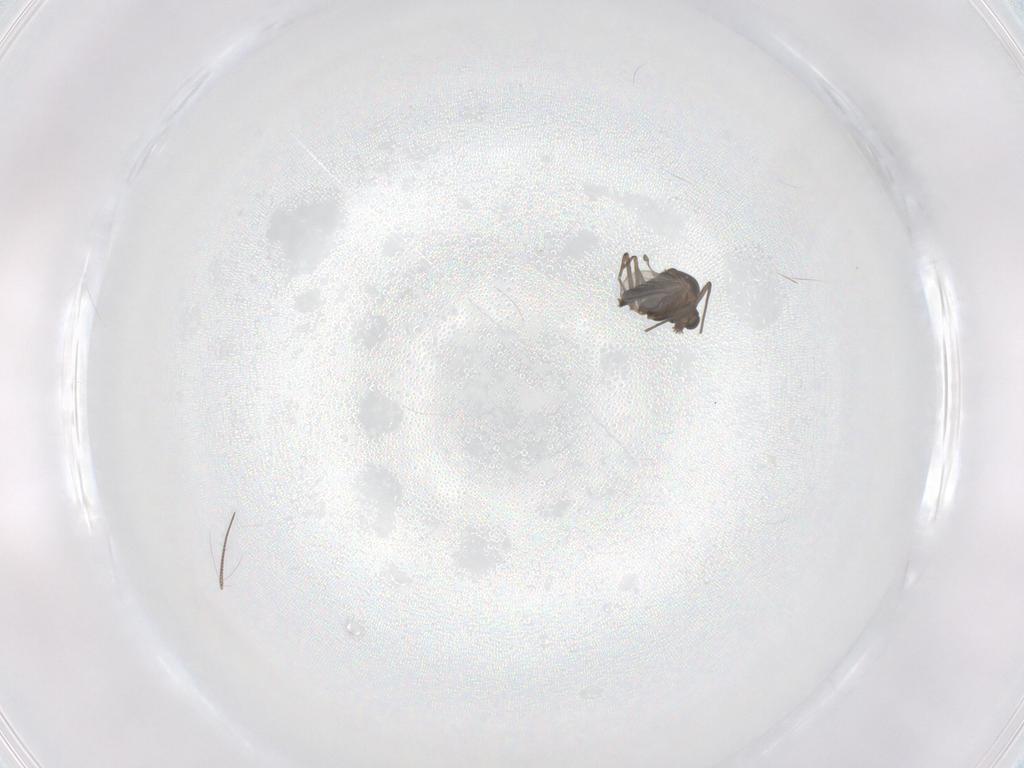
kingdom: Animalia
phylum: Arthropoda
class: Insecta
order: Diptera
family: Chironomidae
